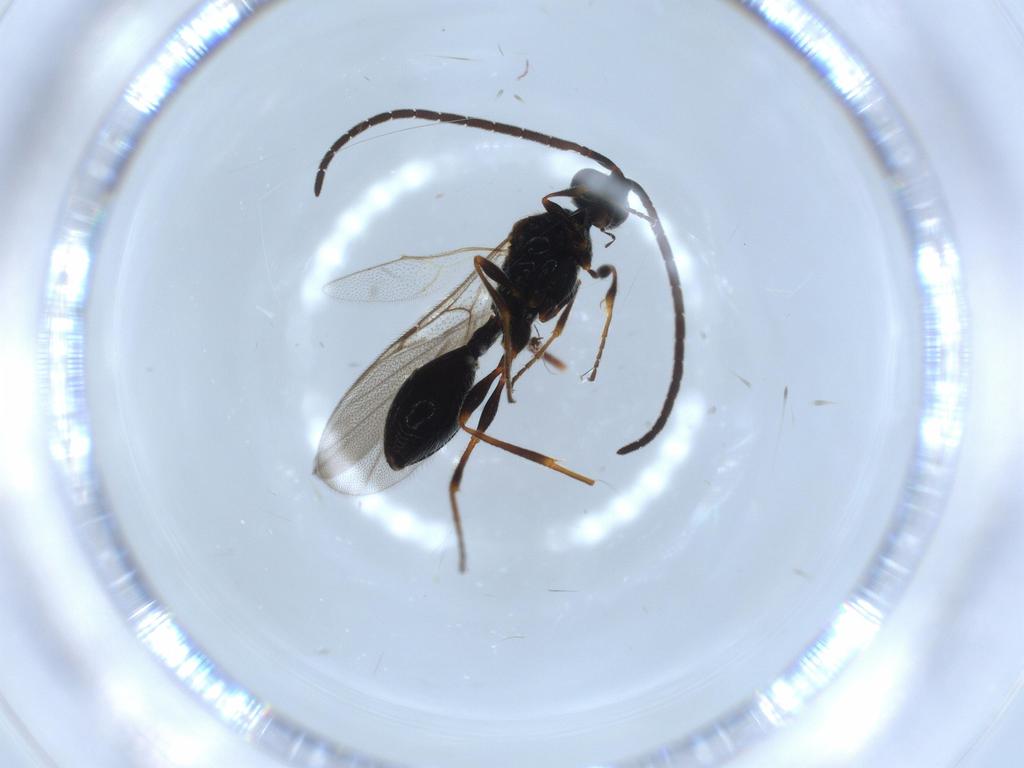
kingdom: Animalia
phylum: Arthropoda
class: Insecta
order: Hymenoptera
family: Ichneumonidae
